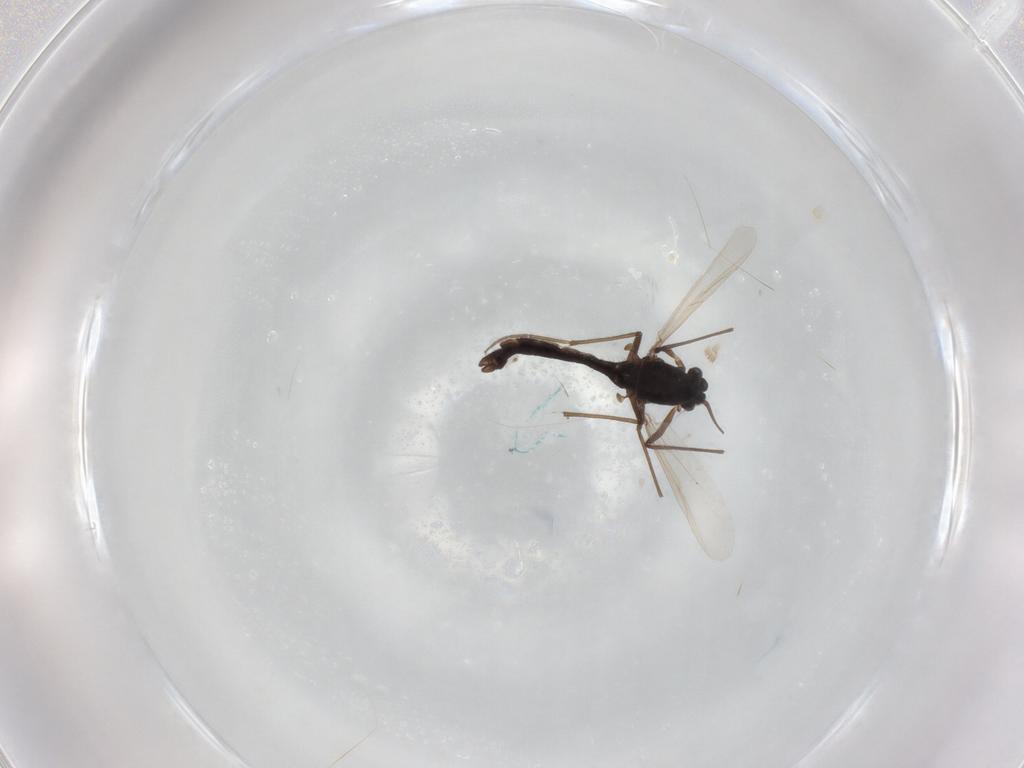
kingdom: Animalia
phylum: Arthropoda
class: Insecta
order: Diptera
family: Chironomidae
